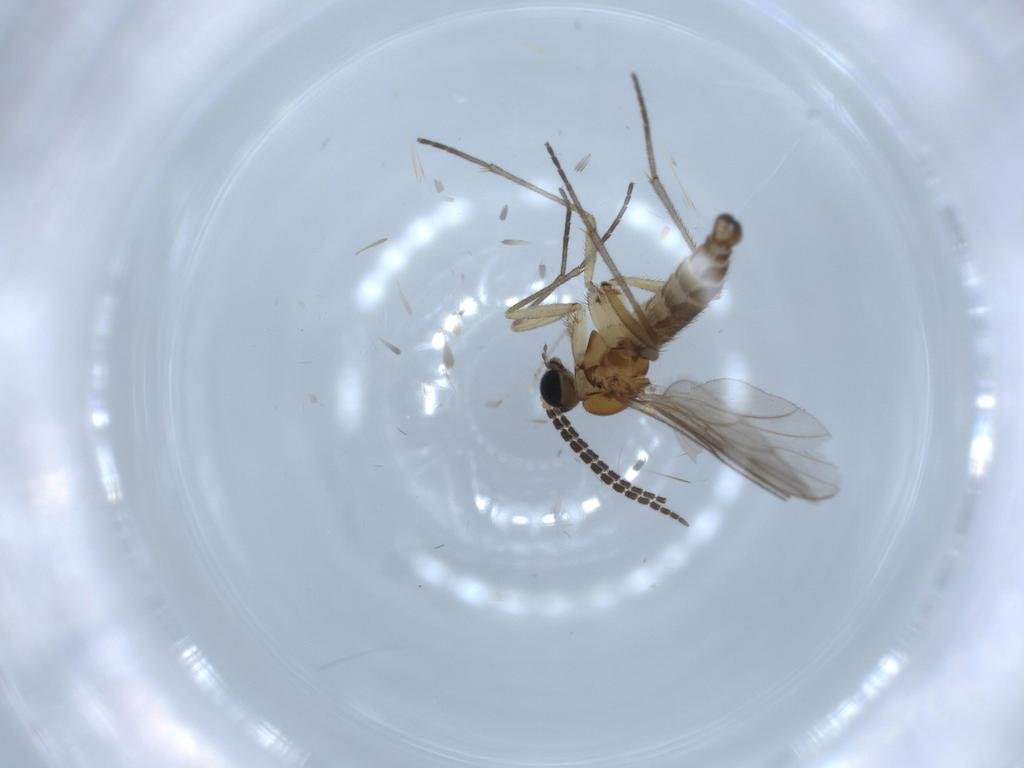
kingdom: Animalia
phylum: Arthropoda
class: Insecta
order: Diptera
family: Sciaridae
